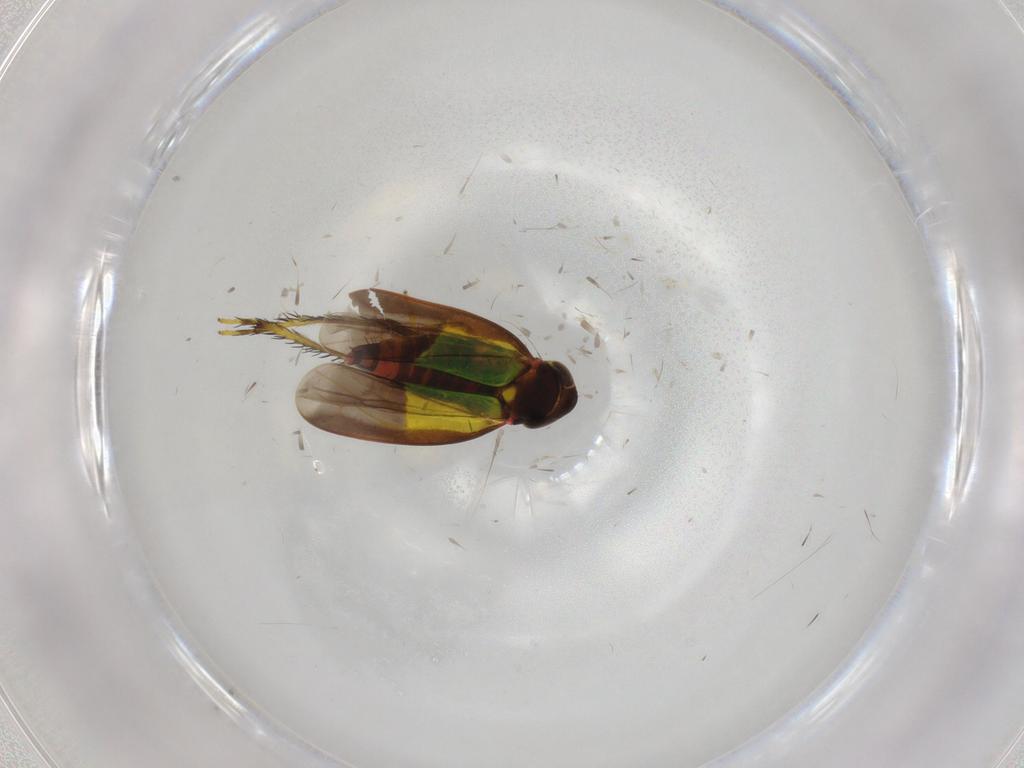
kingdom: Animalia
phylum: Arthropoda
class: Insecta
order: Hemiptera
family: Cicadellidae
